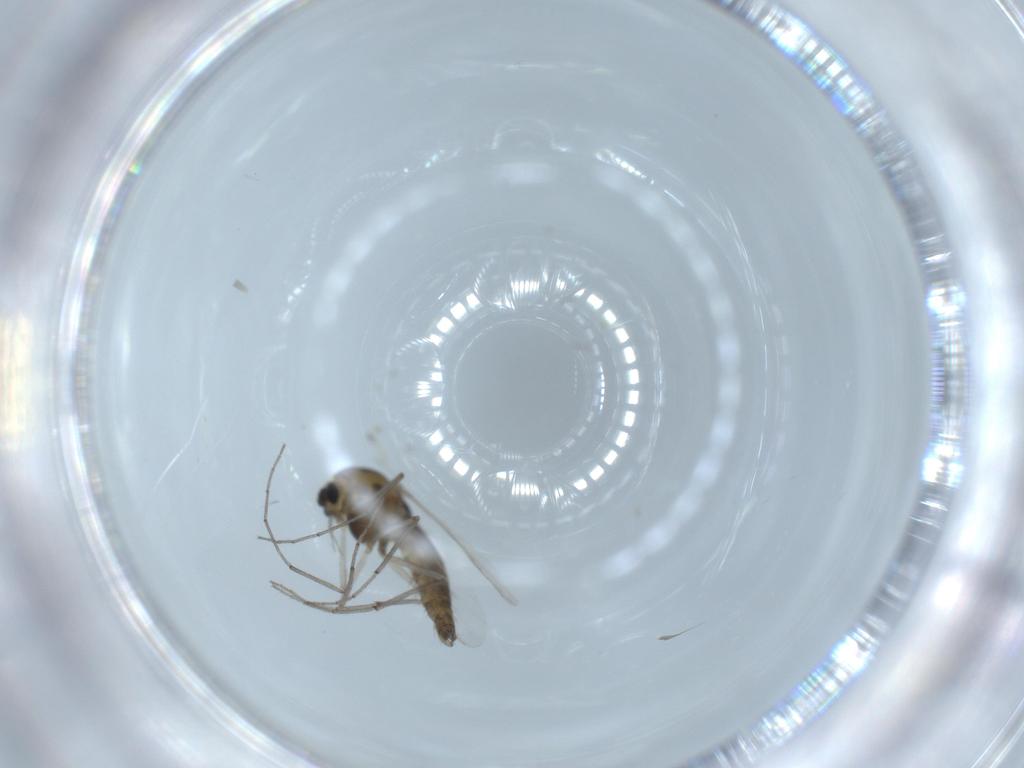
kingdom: Animalia
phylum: Arthropoda
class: Insecta
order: Diptera
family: Chironomidae
